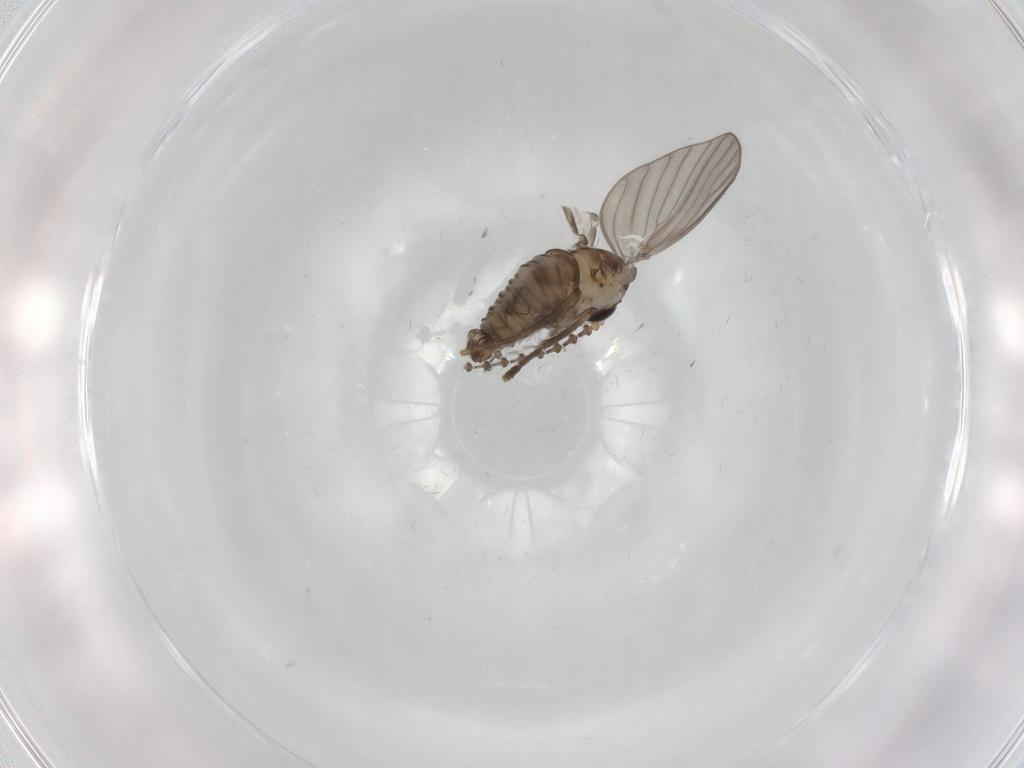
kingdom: Animalia
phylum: Arthropoda
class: Insecta
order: Diptera
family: Psychodidae
